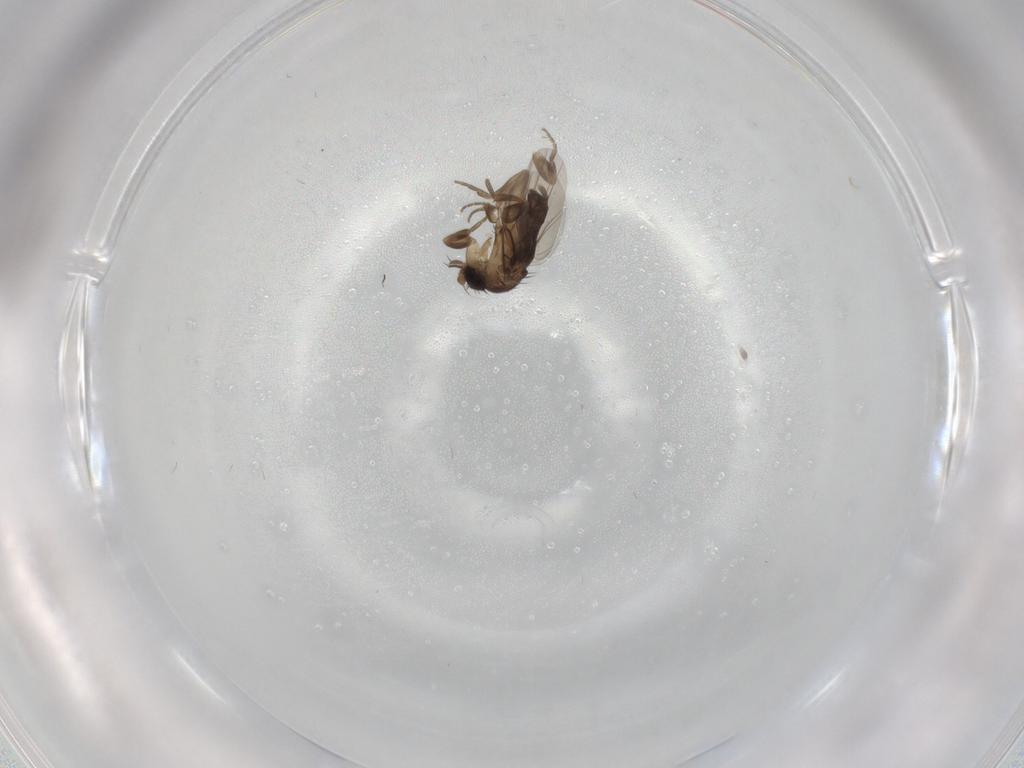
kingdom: Animalia
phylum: Arthropoda
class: Insecta
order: Diptera
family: Psychodidae
